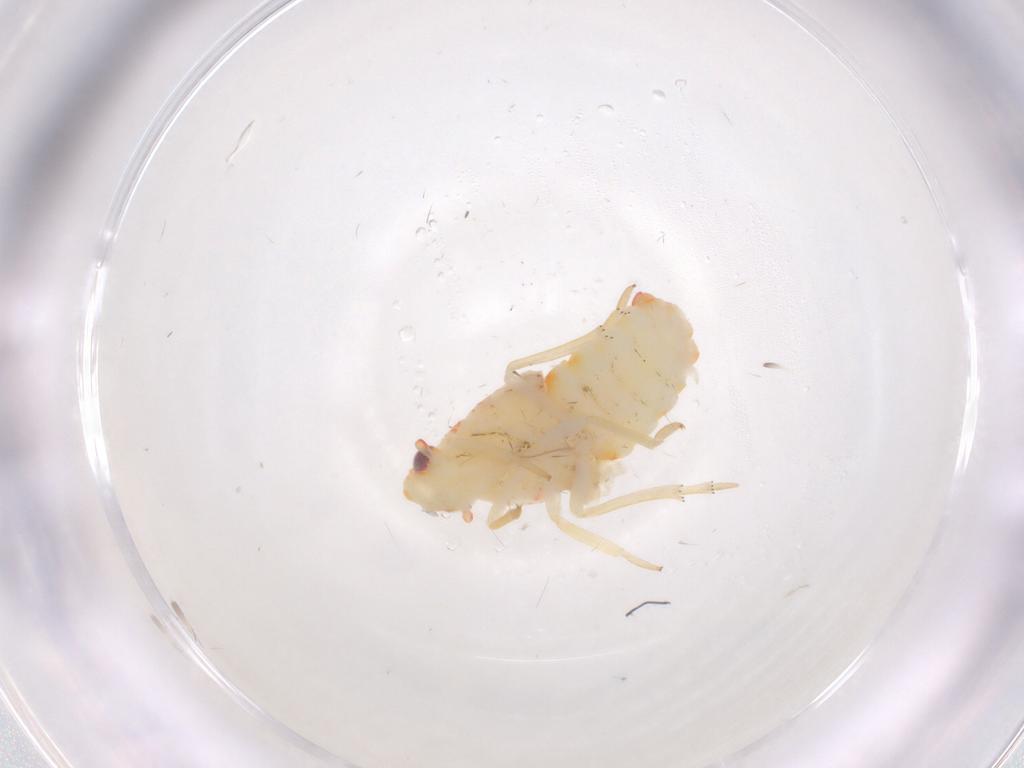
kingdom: Animalia
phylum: Arthropoda
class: Insecta
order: Hemiptera
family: Flatidae
